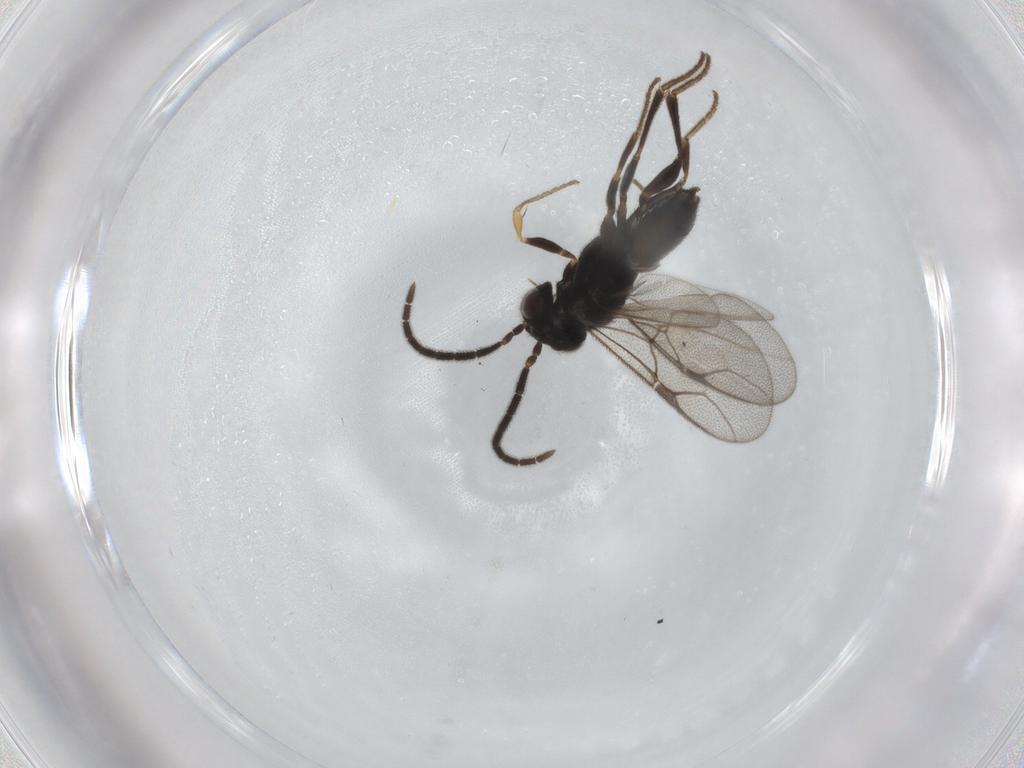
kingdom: Animalia
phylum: Arthropoda
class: Insecta
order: Hymenoptera
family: Dryinidae
